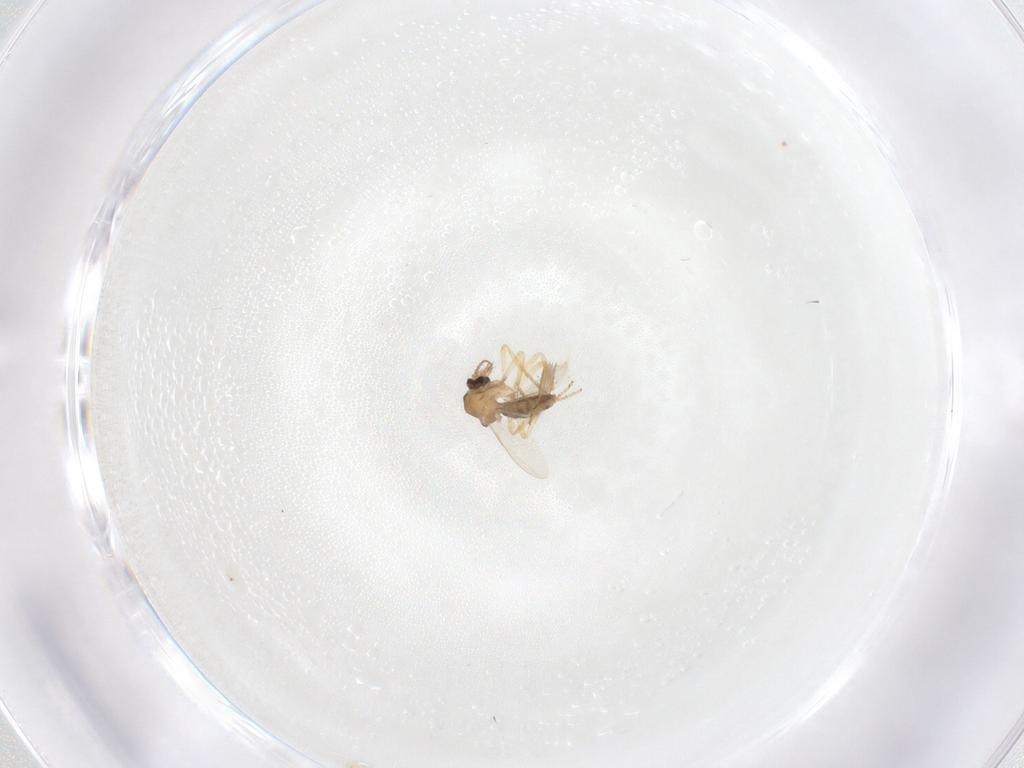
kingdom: Animalia
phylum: Arthropoda
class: Insecta
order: Diptera
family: Ceratopogonidae
